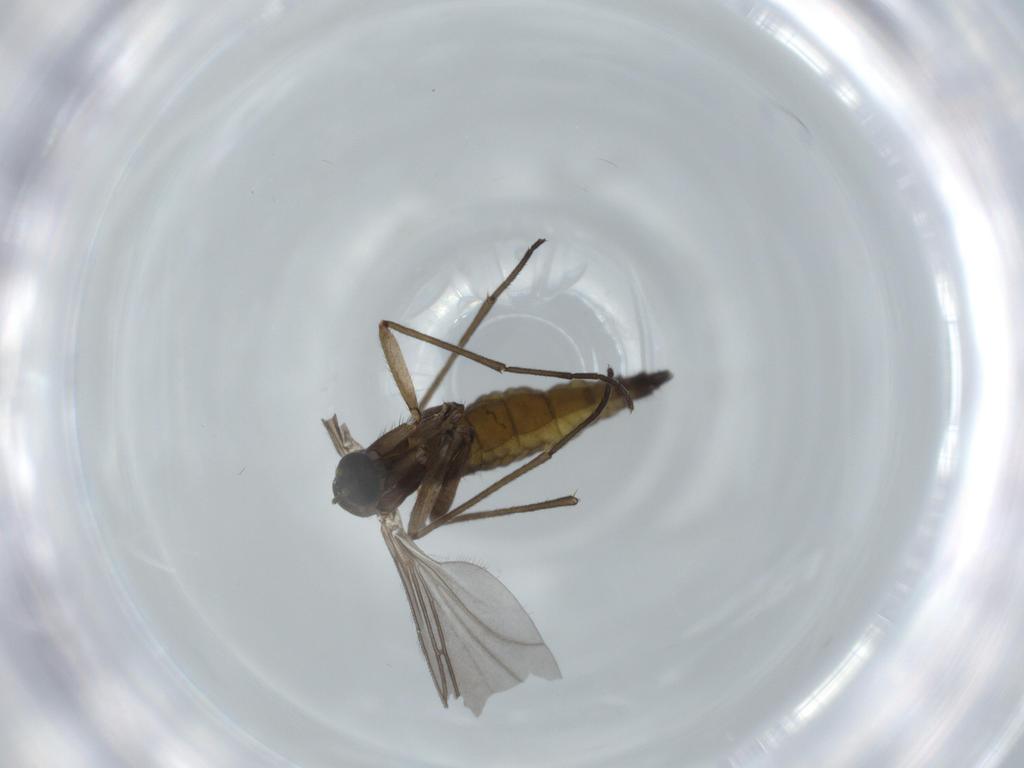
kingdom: Animalia
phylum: Arthropoda
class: Insecta
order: Diptera
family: Sciaridae
